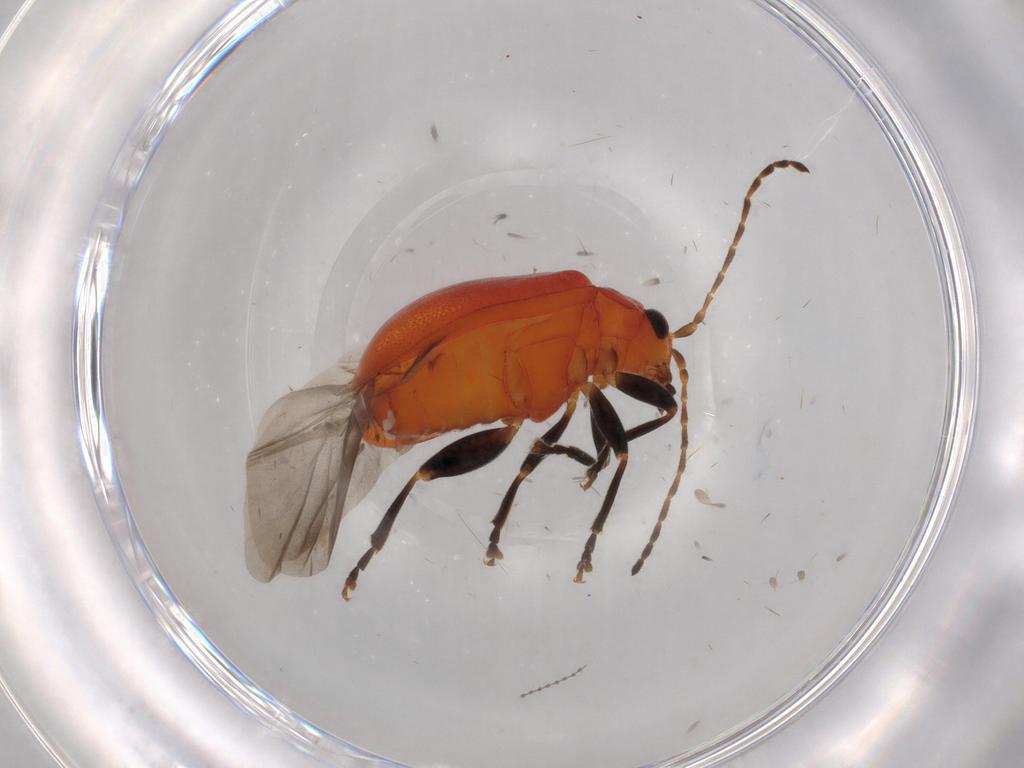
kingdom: Animalia
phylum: Arthropoda
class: Insecta
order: Coleoptera
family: Chrysomelidae
